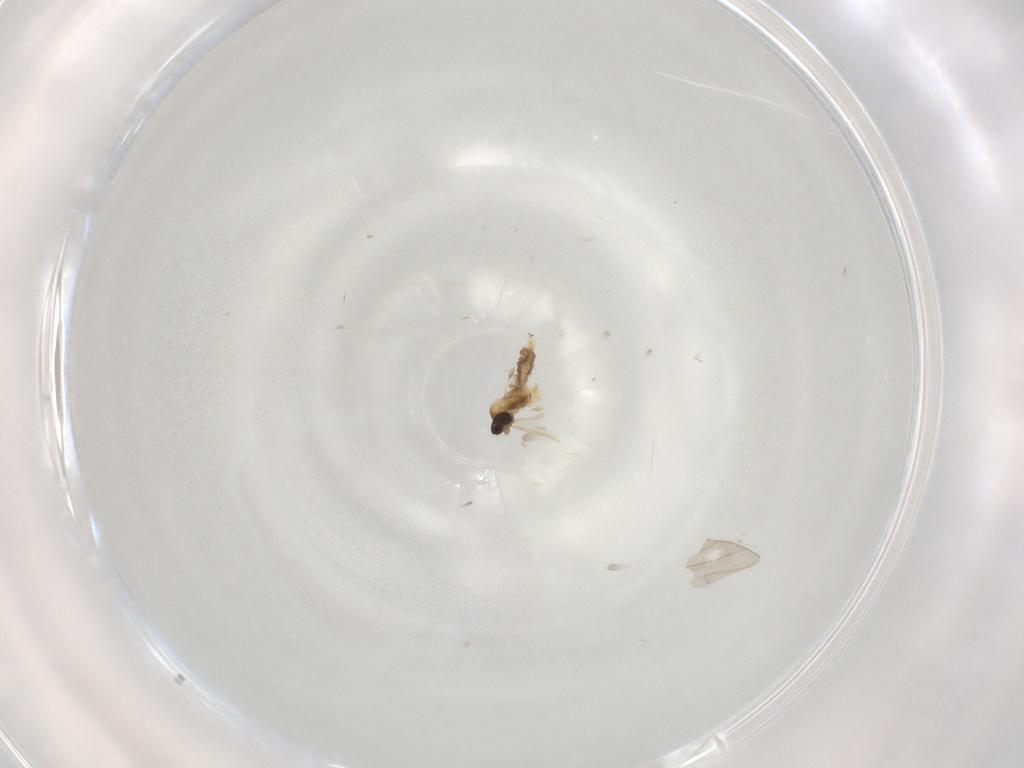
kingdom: Animalia
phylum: Arthropoda
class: Insecta
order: Diptera
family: Cecidomyiidae
